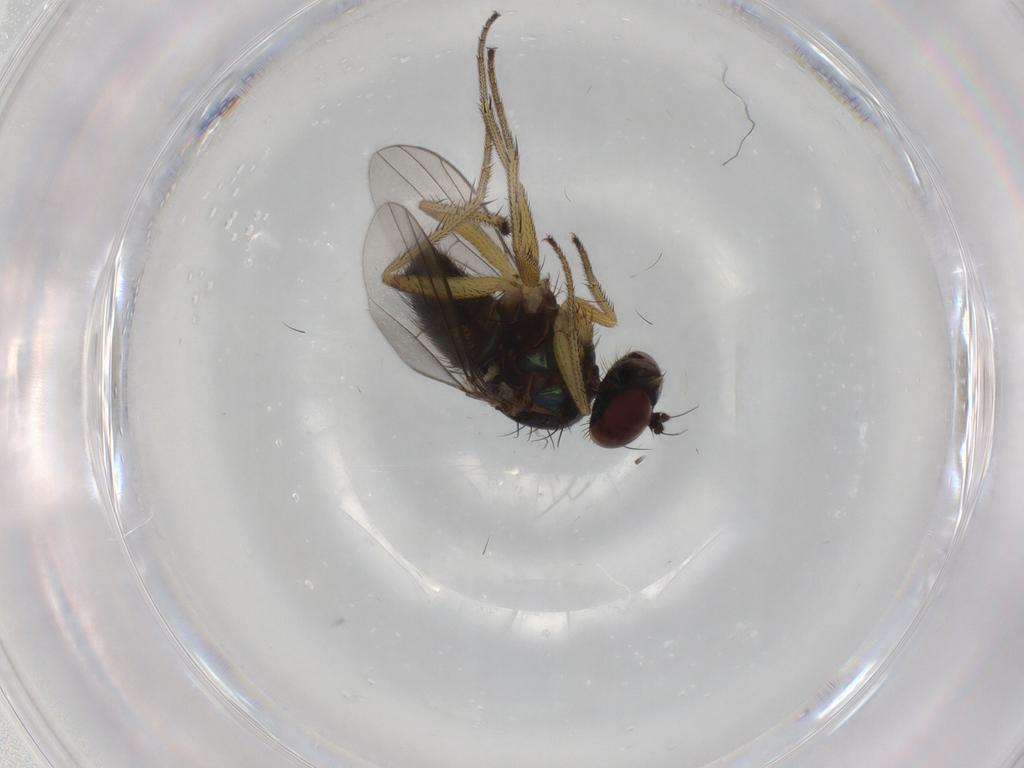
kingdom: Animalia
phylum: Arthropoda
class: Insecta
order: Diptera
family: Dolichopodidae
